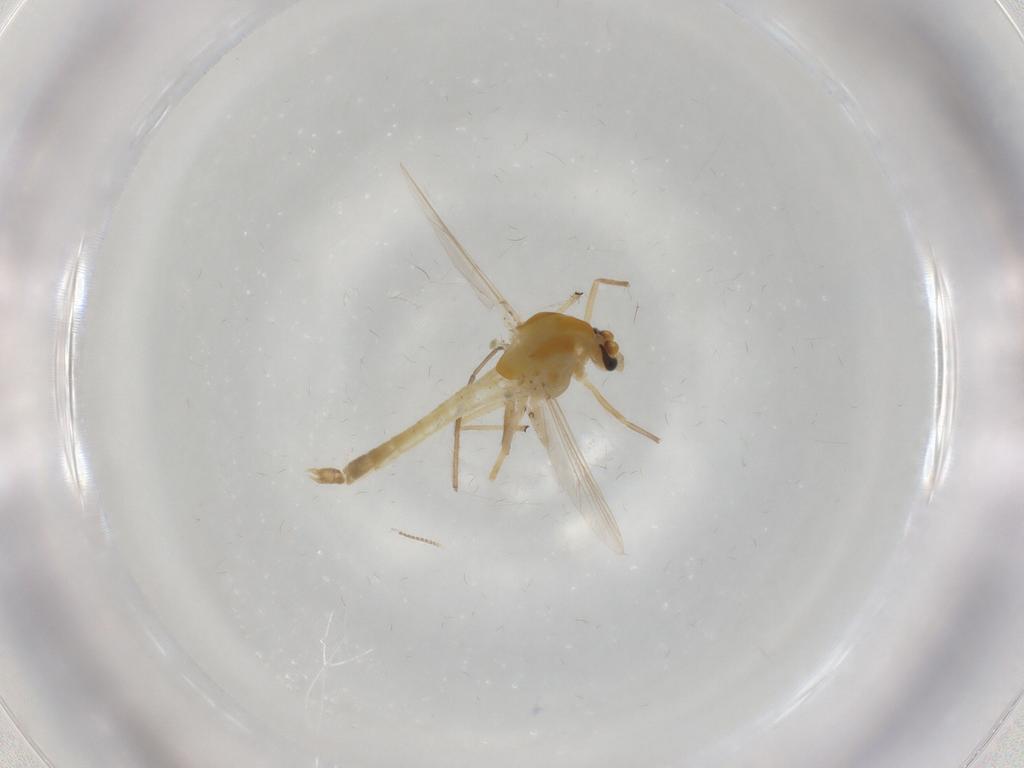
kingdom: Animalia
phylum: Arthropoda
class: Insecta
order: Diptera
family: Chironomidae
